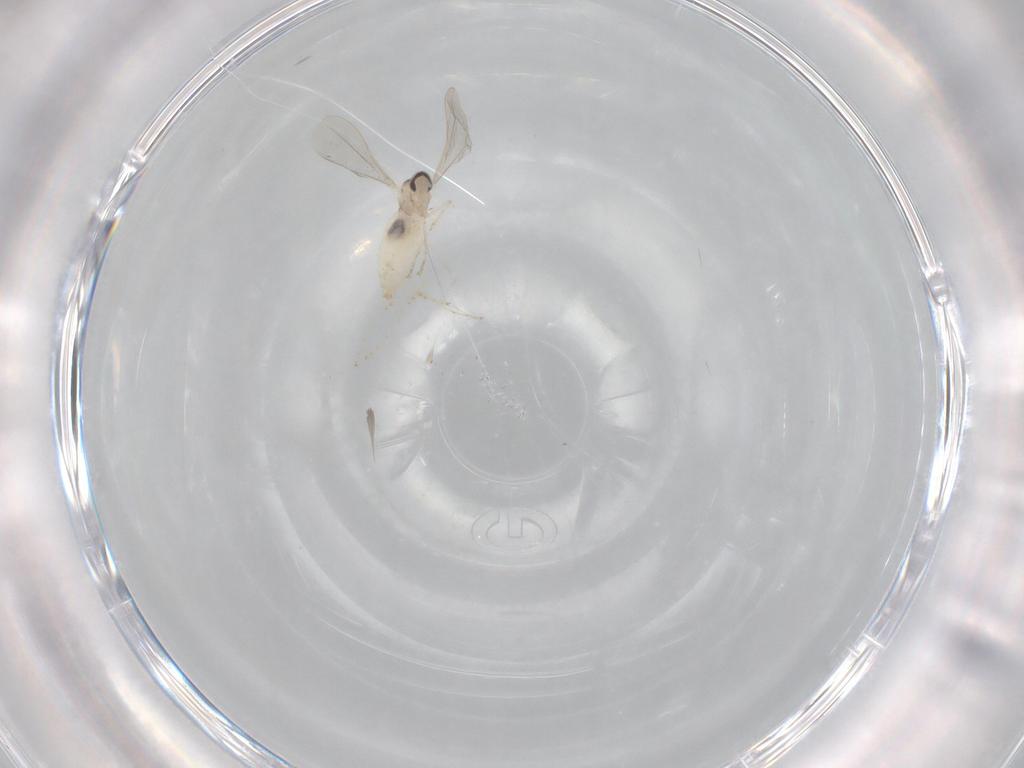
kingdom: Animalia
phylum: Arthropoda
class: Insecta
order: Diptera
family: Cecidomyiidae
